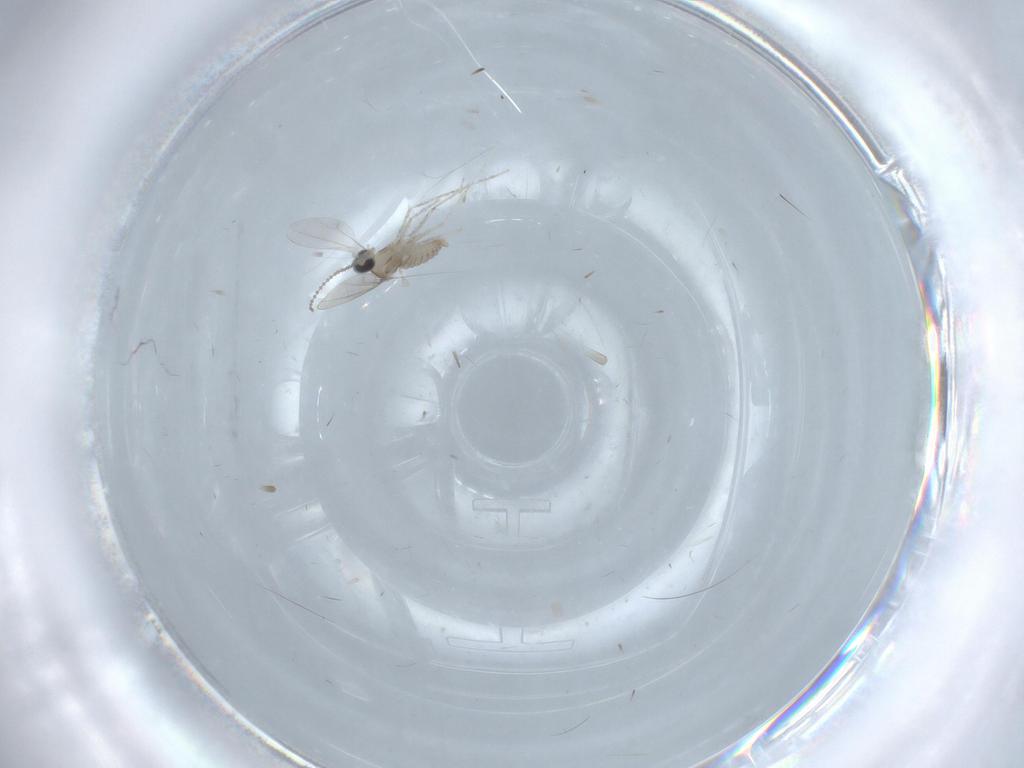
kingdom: Animalia
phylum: Arthropoda
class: Insecta
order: Diptera
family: Tabanidae
